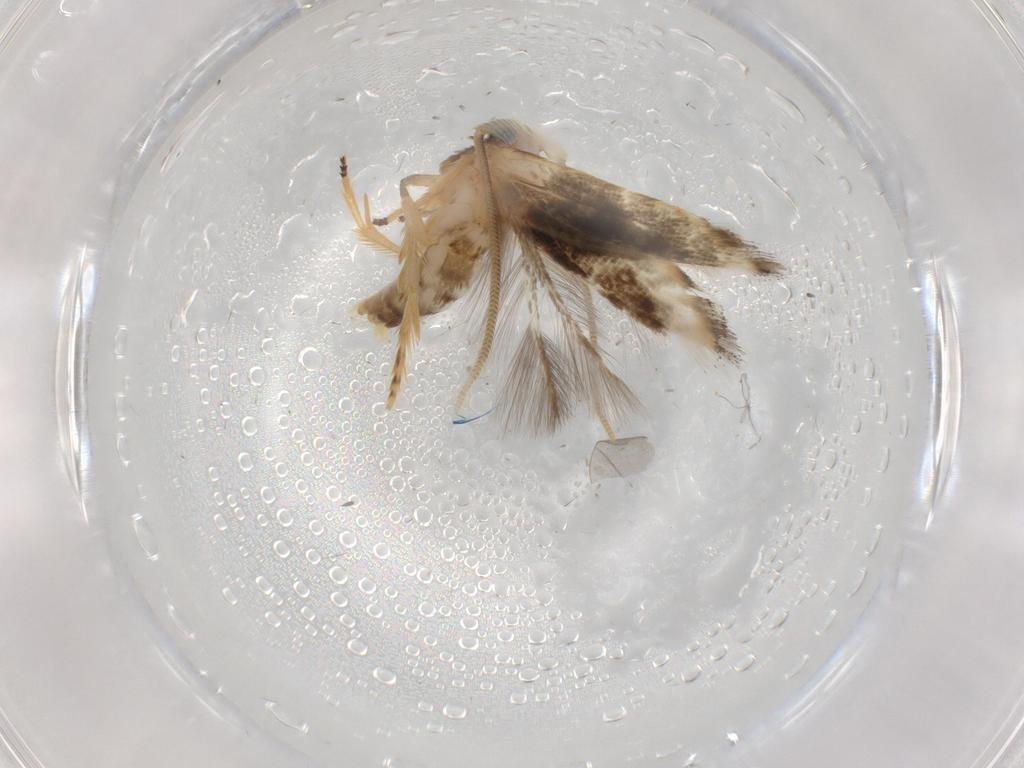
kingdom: Animalia
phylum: Arthropoda
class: Insecta
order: Lepidoptera
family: Opostegidae
